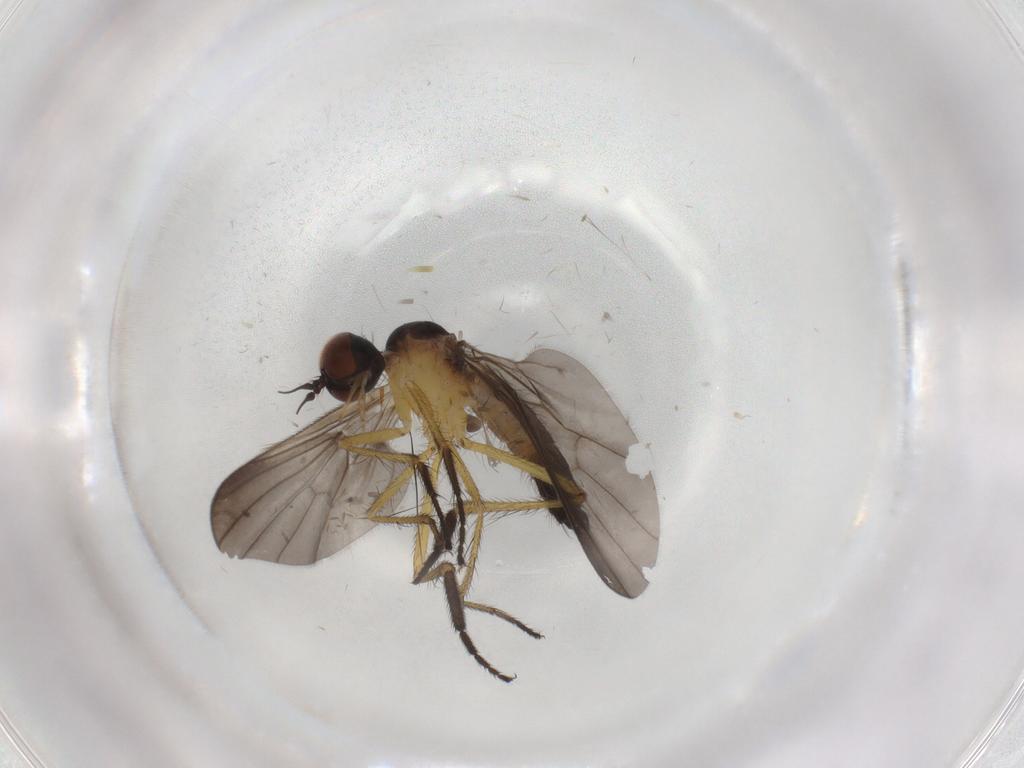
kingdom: Animalia
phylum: Arthropoda
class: Insecta
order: Diptera
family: Empididae
